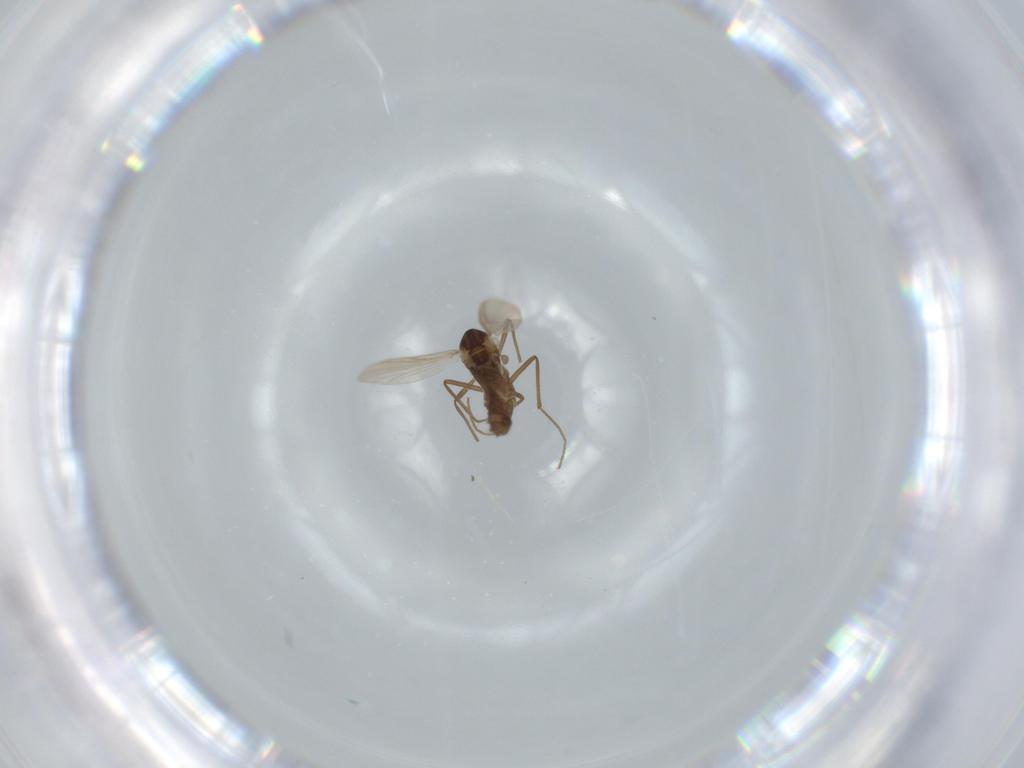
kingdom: Animalia
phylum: Arthropoda
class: Insecta
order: Diptera
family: Chironomidae
